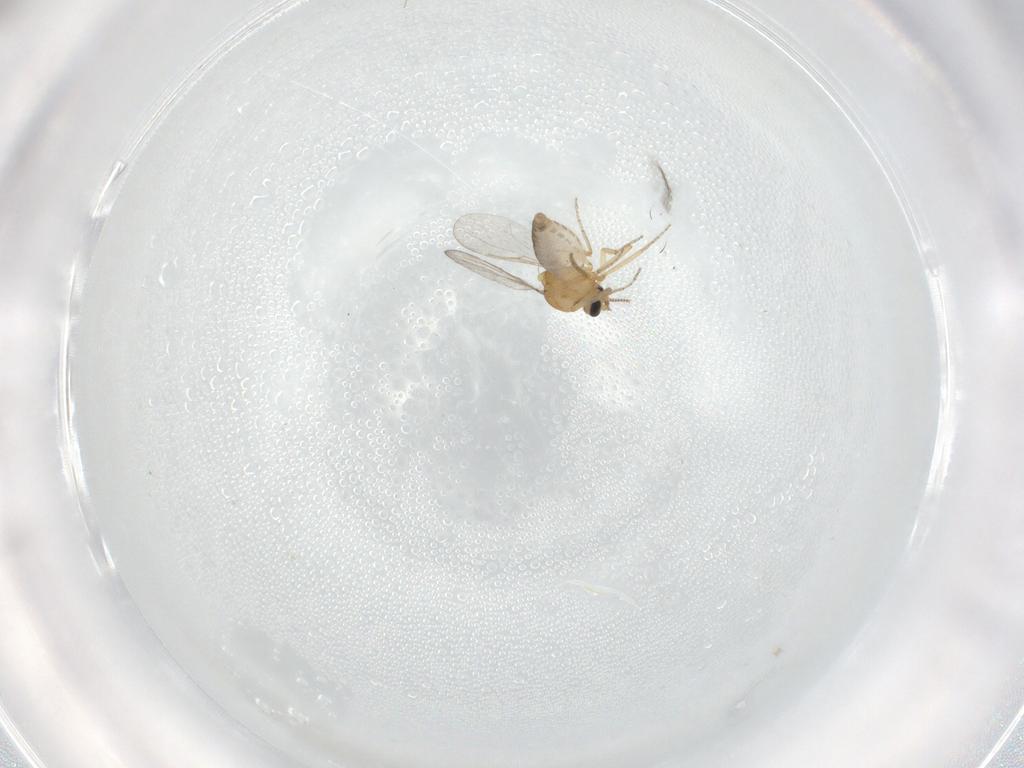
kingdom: Animalia
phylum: Arthropoda
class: Insecta
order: Diptera
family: Ceratopogonidae
